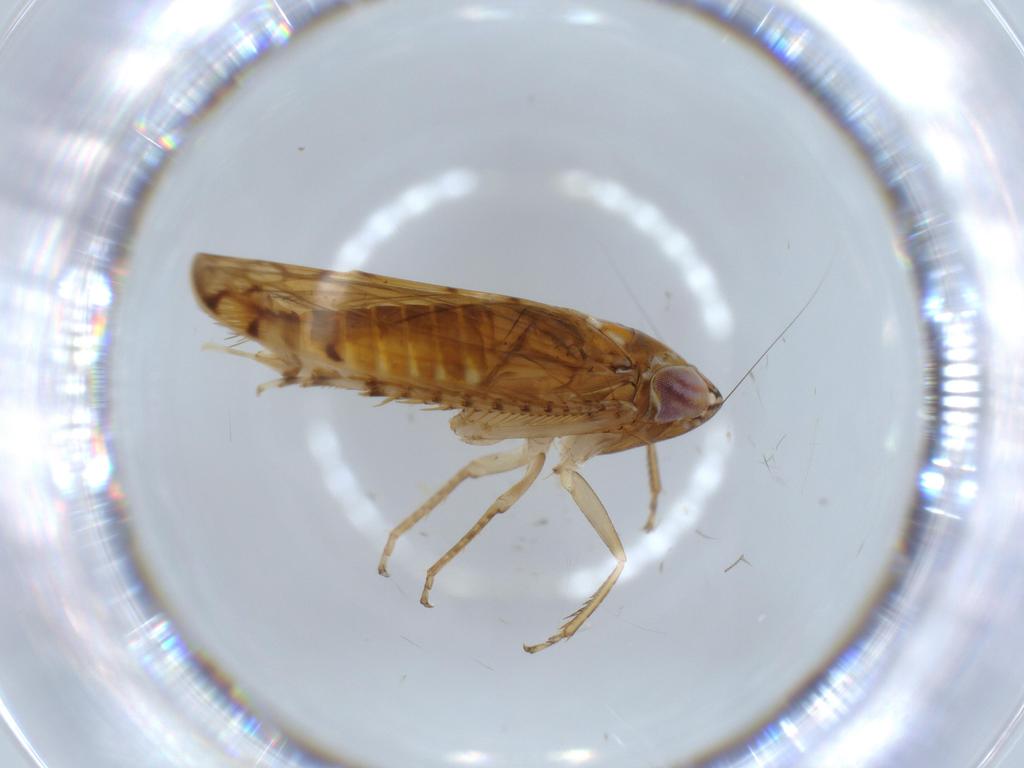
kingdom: Animalia
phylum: Arthropoda
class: Insecta
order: Hemiptera
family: Cicadellidae
